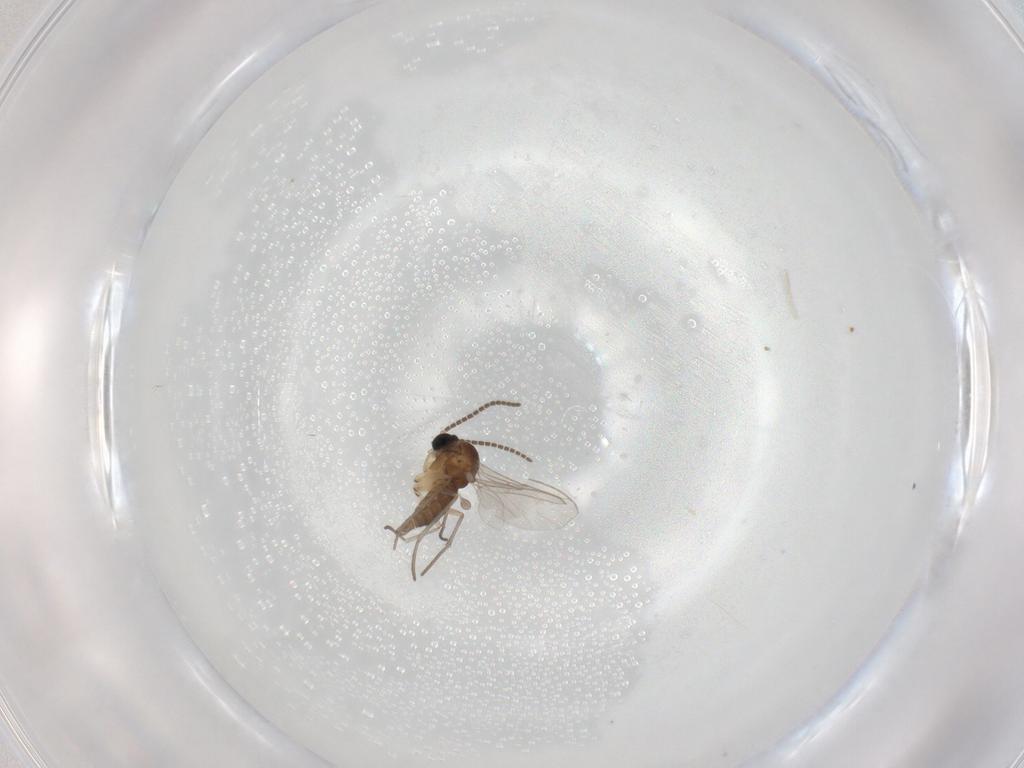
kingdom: Animalia
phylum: Arthropoda
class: Insecta
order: Diptera
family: Sciaridae
